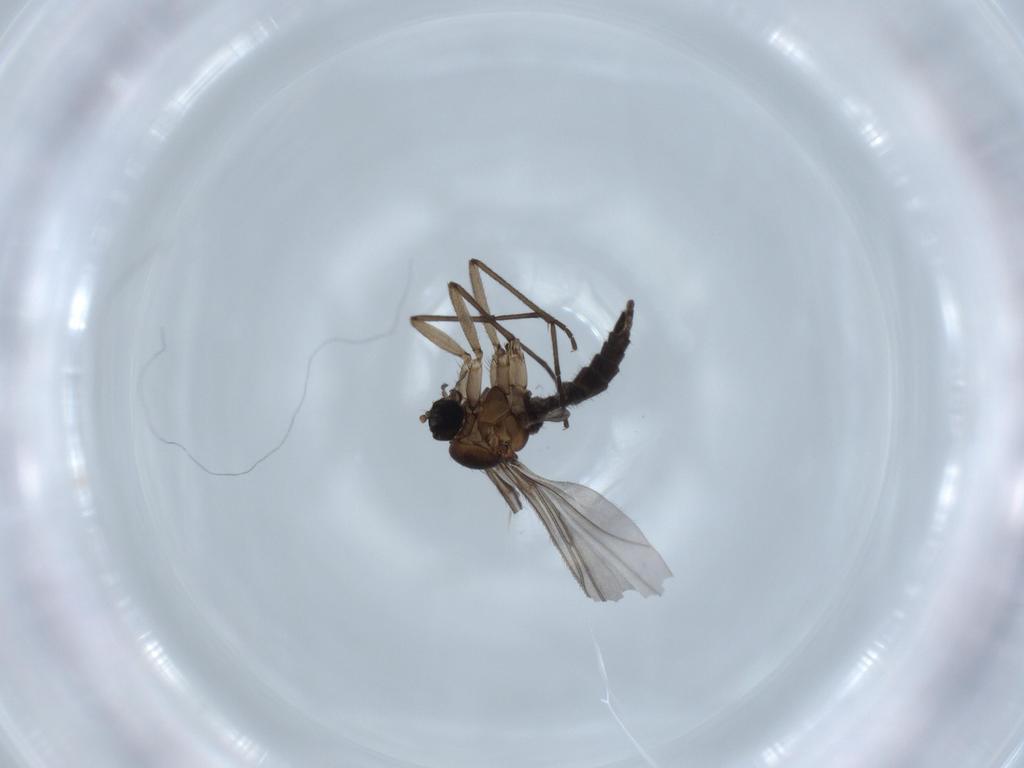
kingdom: Animalia
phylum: Arthropoda
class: Insecta
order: Diptera
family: Sciaridae
